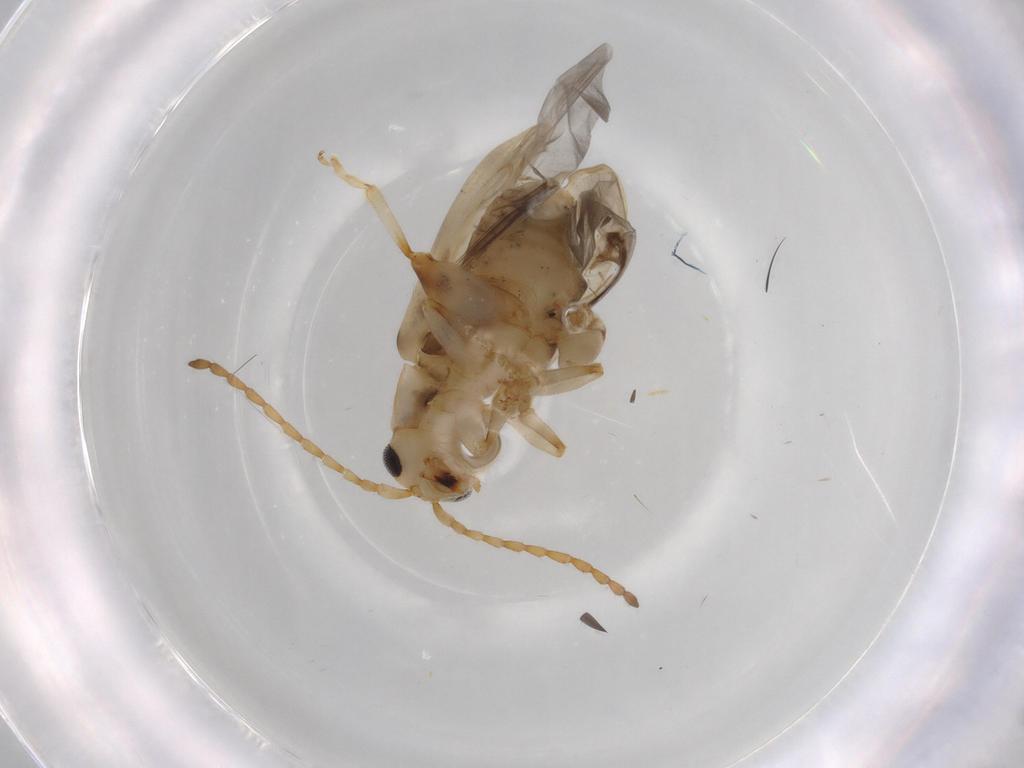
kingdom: Animalia
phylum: Arthropoda
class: Insecta
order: Coleoptera
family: Chrysomelidae
